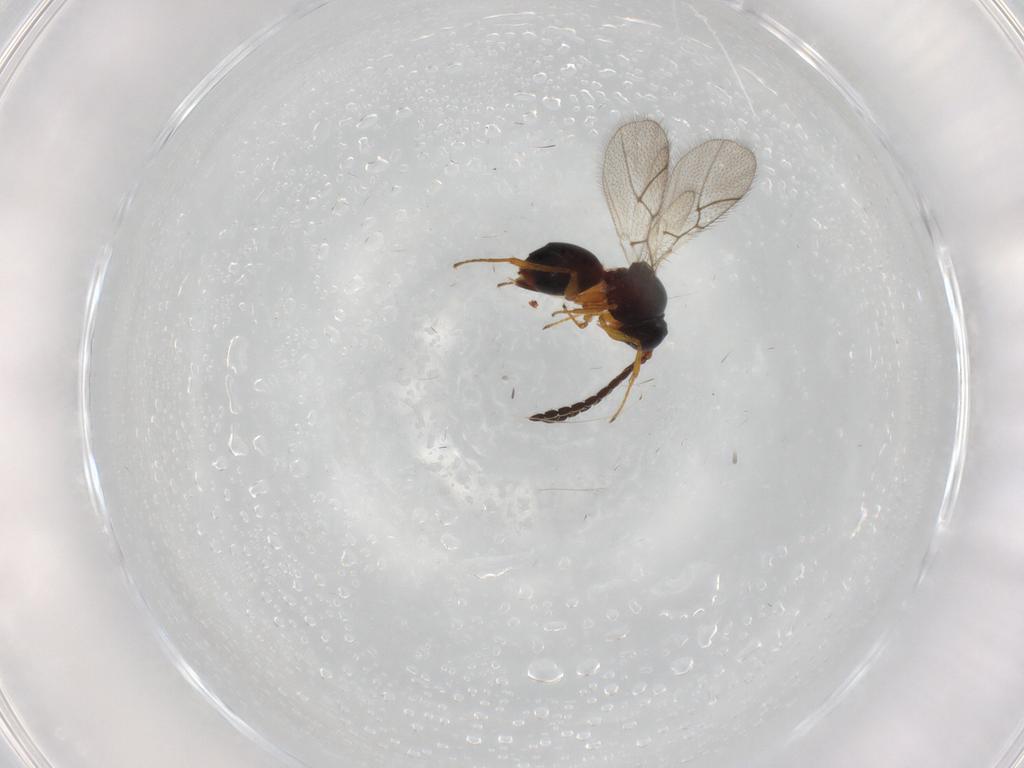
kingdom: Animalia
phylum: Arthropoda
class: Insecta
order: Hymenoptera
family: Figitidae
